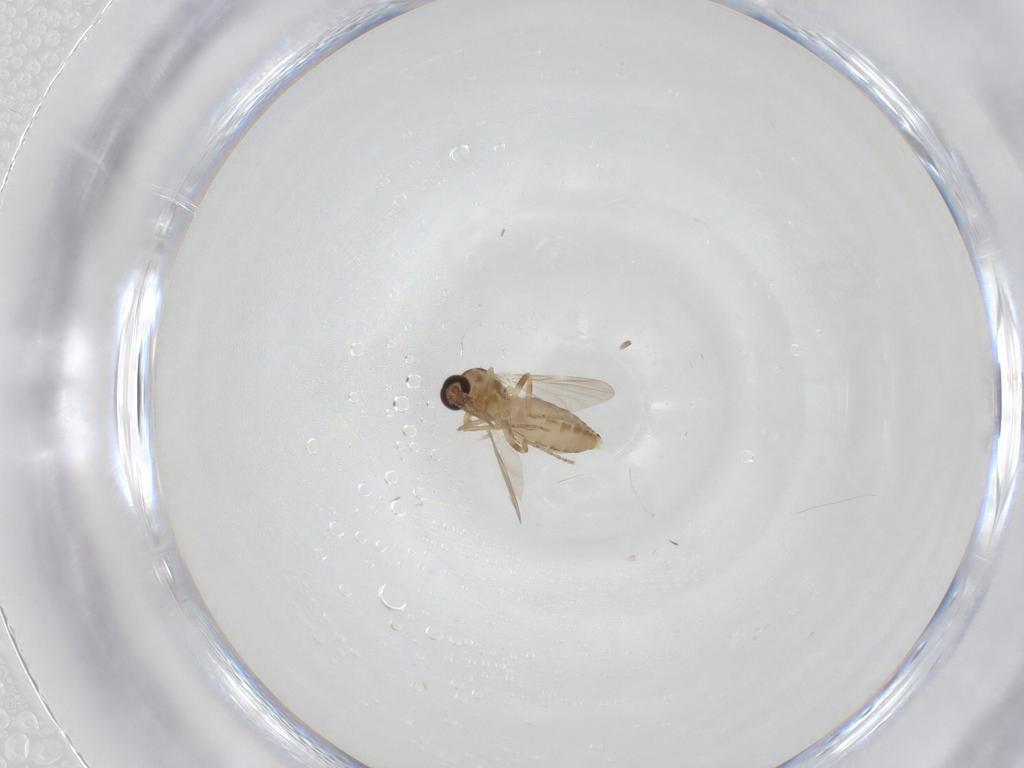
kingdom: Animalia
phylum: Arthropoda
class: Insecta
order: Diptera
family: Ceratopogonidae
